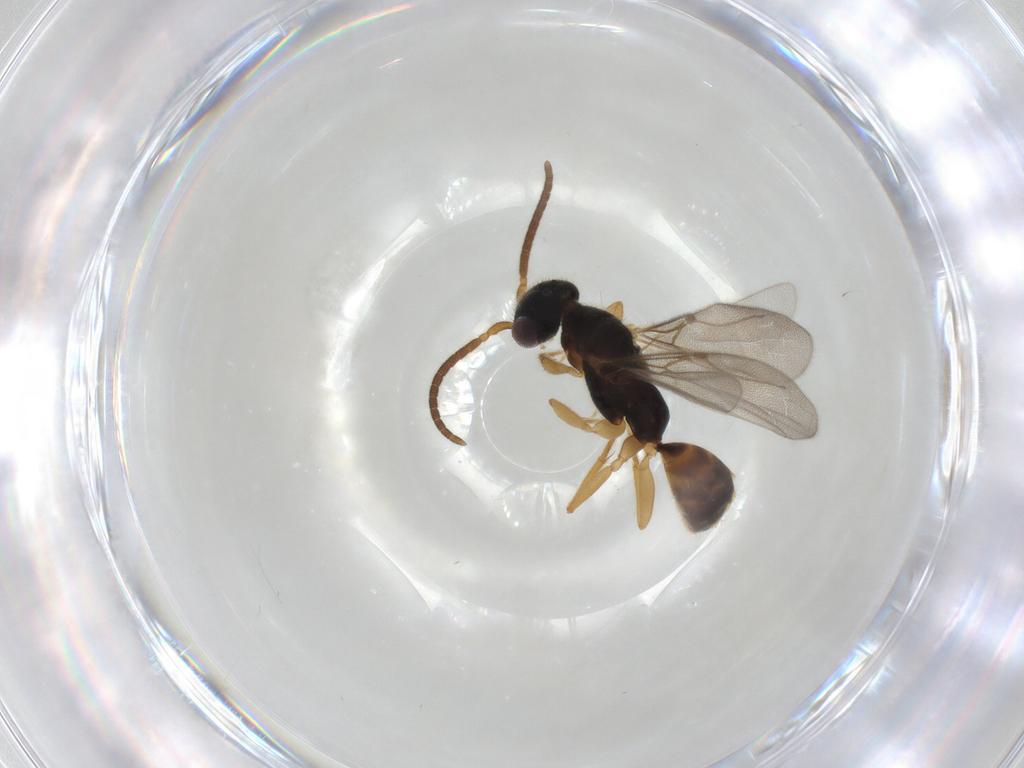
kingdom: Animalia
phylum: Arthropoda
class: Insecta
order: Hymenoptera
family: Bethylidae
